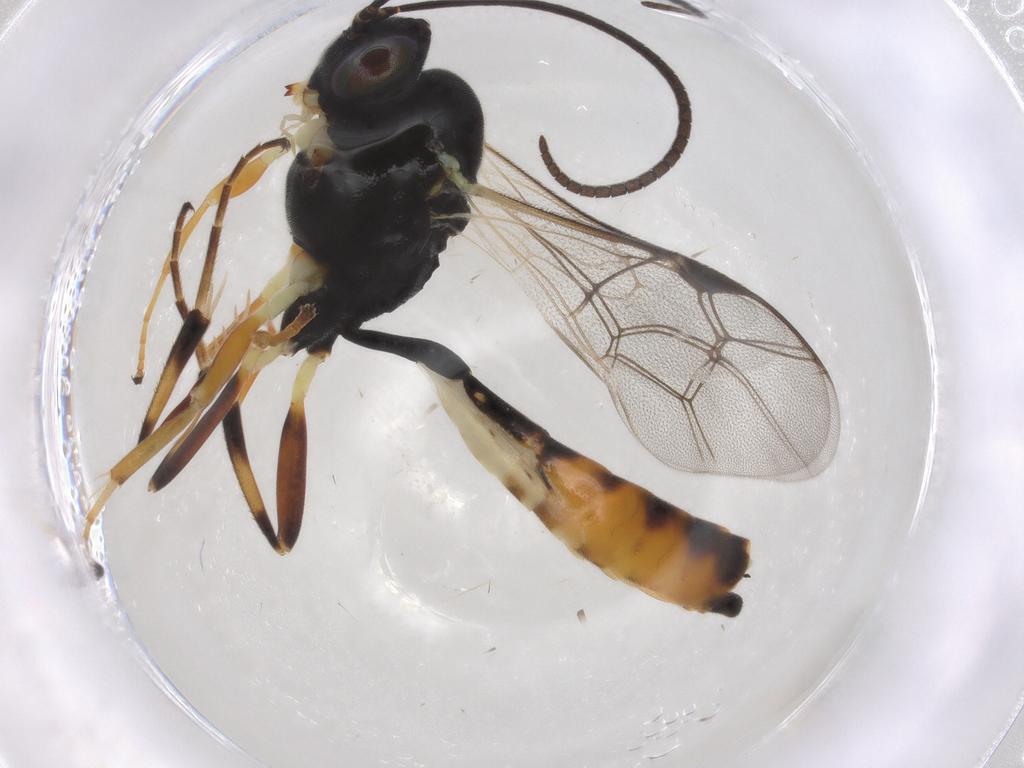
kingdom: Animalia
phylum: Arthropoda
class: Insecta
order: Hymenoptera
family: Ichneumonidae
